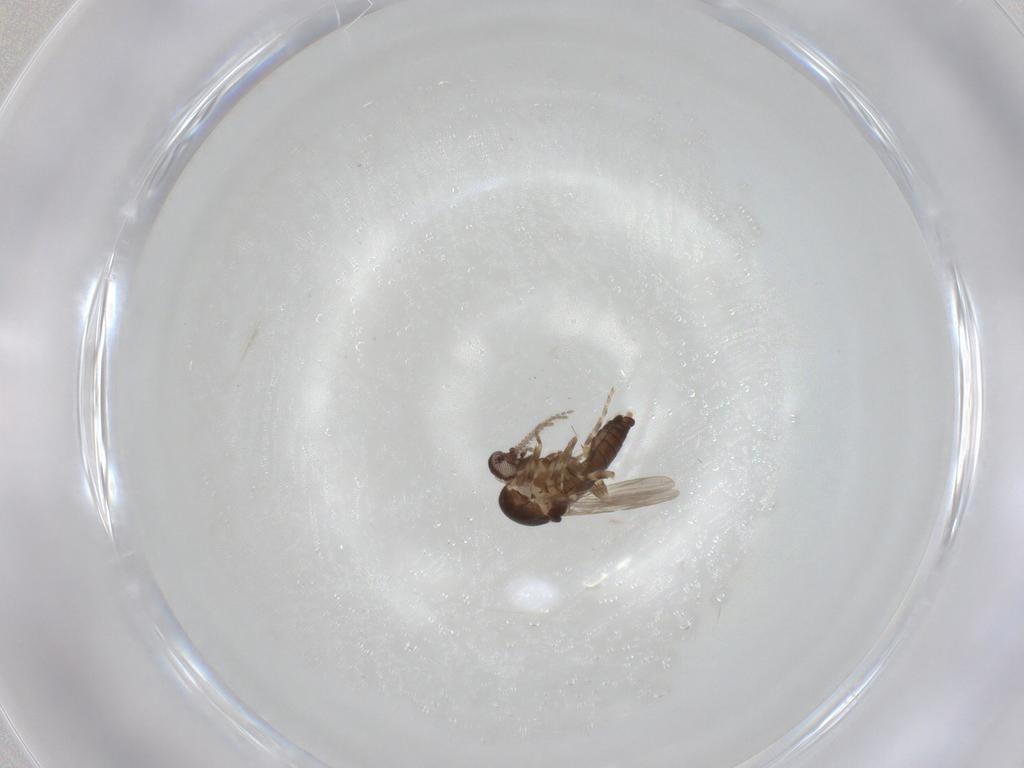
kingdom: Animalia
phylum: Arthropoda
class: Insecta
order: Diptera
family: Ceratopogonidae
